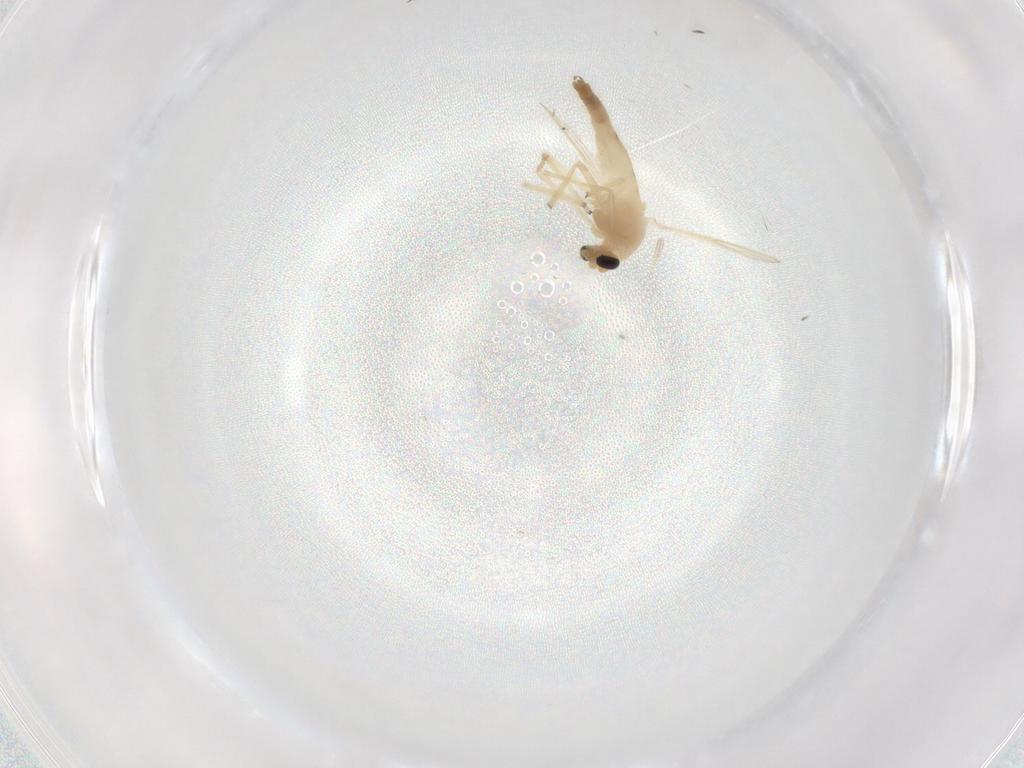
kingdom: Animalia
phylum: Arthropoda
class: Insecta
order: Diptera
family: Chironomidae
